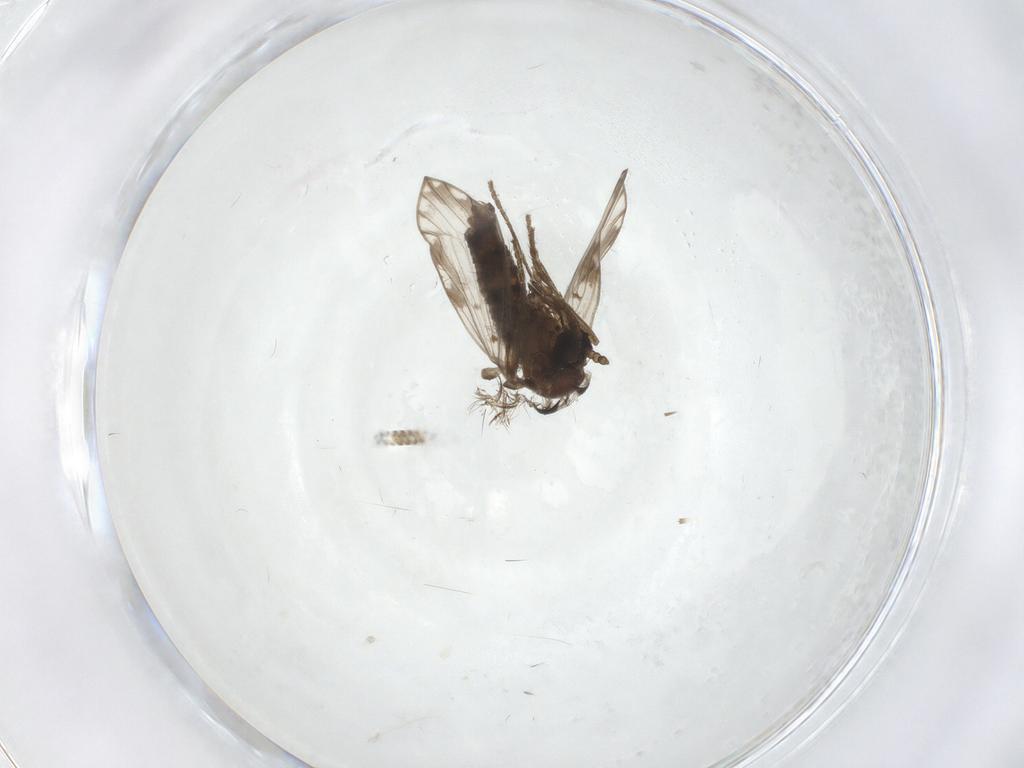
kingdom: Animalia
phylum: Arthropoda
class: Insecta
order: Diptera
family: Psychodidae
